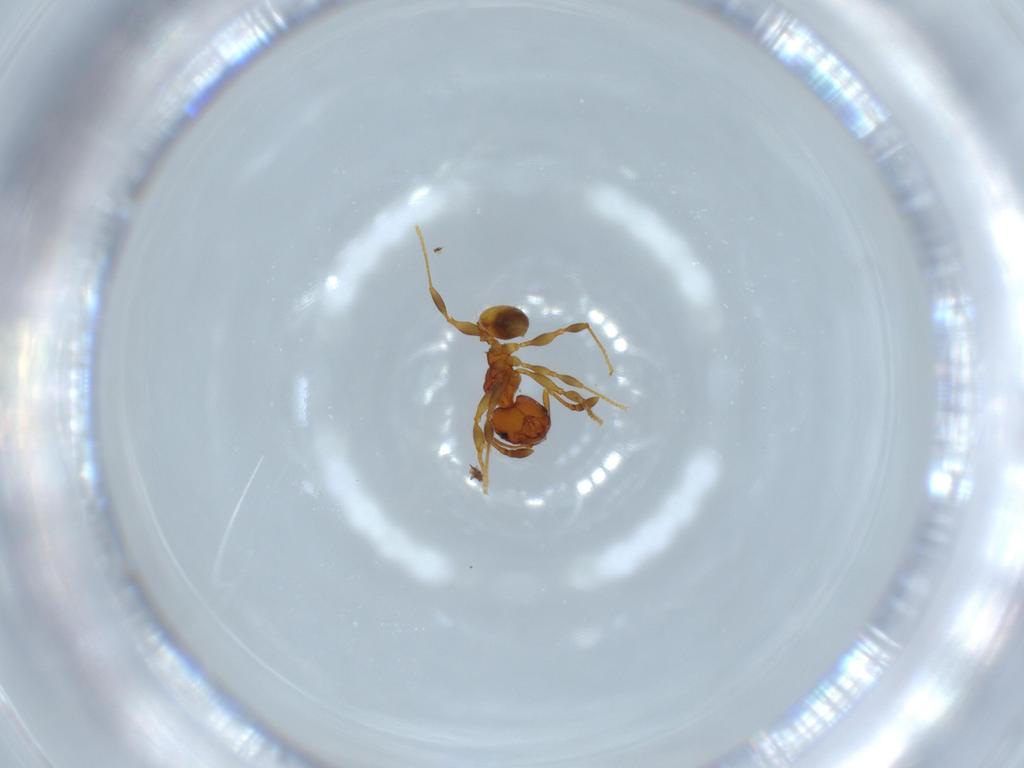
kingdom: Animalia
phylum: Arthropoda
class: Insecta
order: Hymenoptera
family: Formicidae
